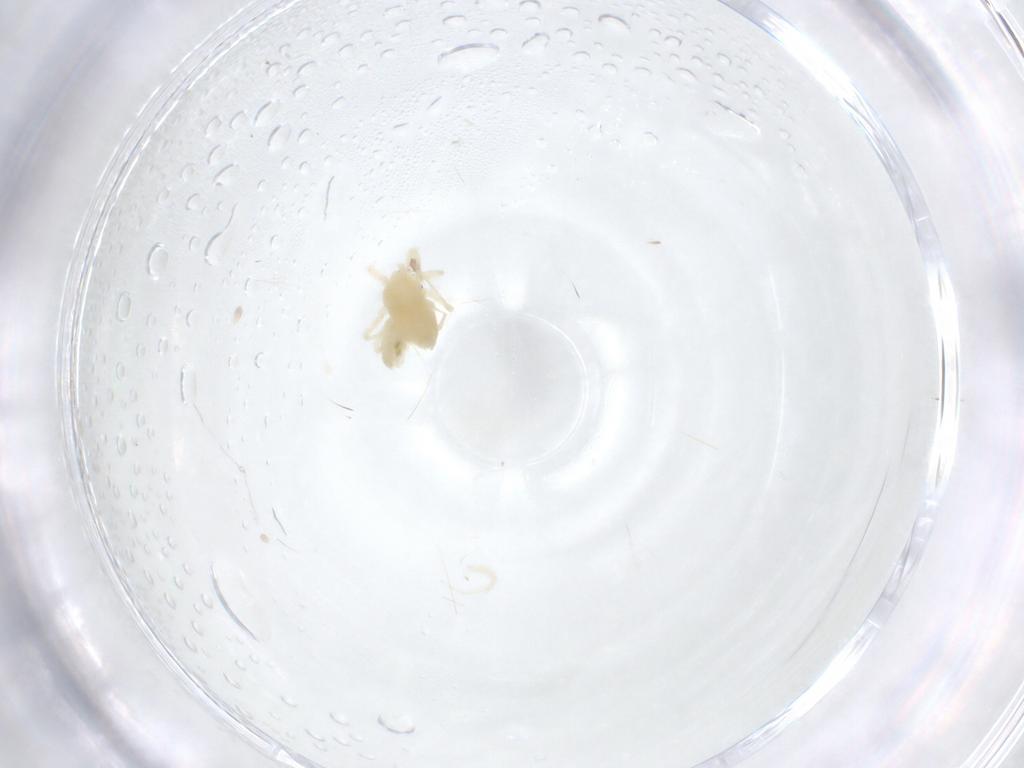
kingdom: Animalia
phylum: Arthropoda
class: Arachnida
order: Trombidiformes
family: Anystidae
